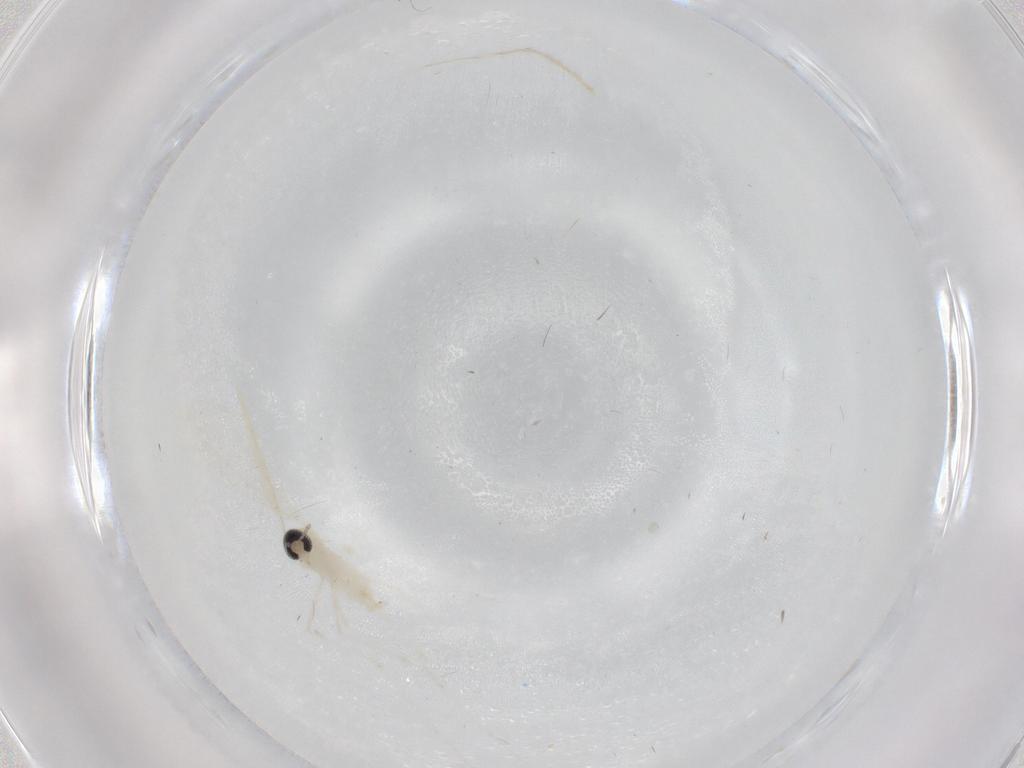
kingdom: Animalia
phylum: Arthropoda
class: Insecta
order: Diptera
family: Cecidomyiidae
